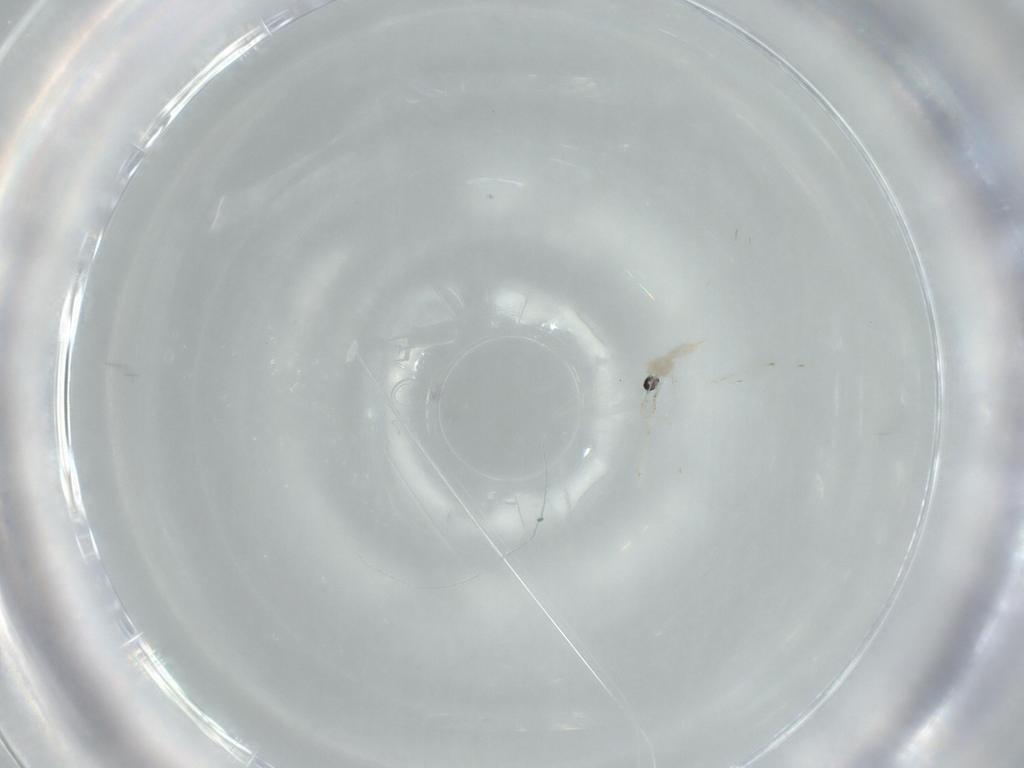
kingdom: Animalia
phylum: Arthropoda
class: Insecta
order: Diptera
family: Cecidomyiidae
